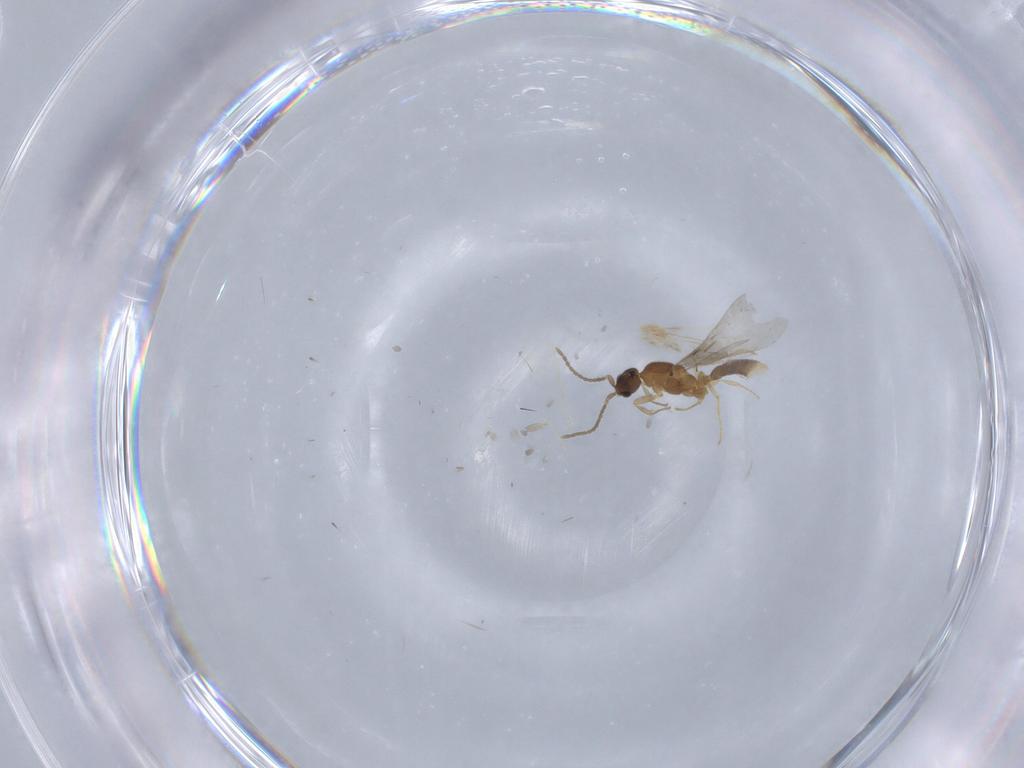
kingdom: Animalia
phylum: Arthropoda
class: Insecta
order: Hymenoptera
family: Formicidae
